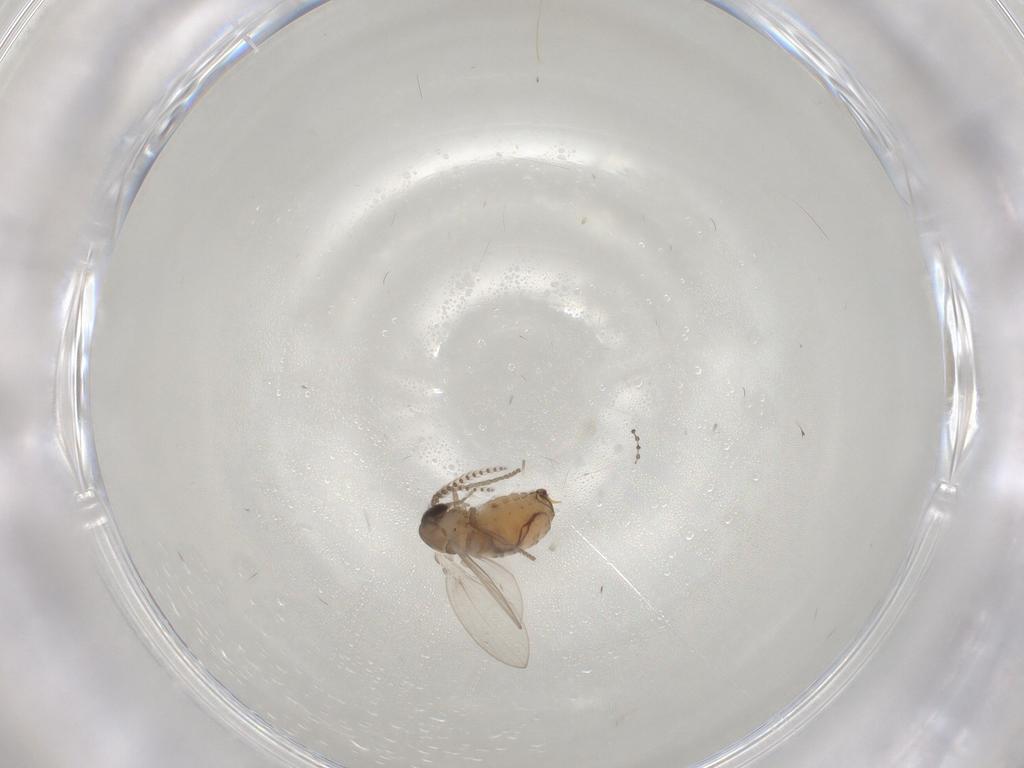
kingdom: Animalia
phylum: Arthropoda
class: Insecta
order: Diptera
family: Psychodidae
